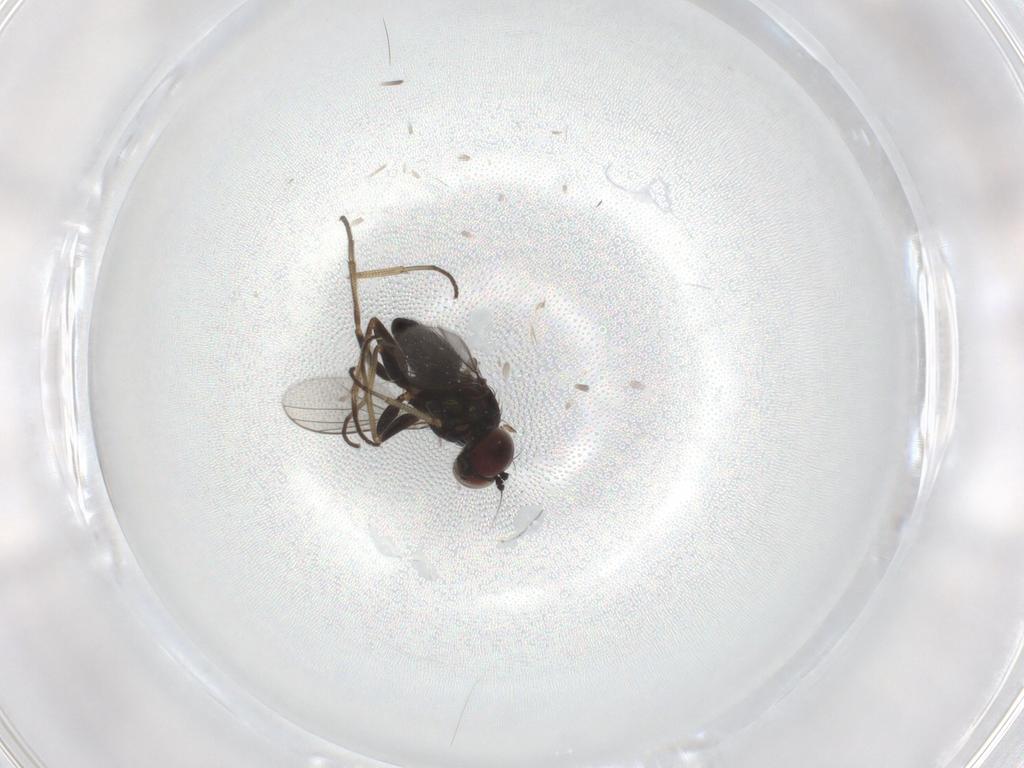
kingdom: Animalia
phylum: Arthropoda
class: Insecta
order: Diptera
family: Dolichopodidae
